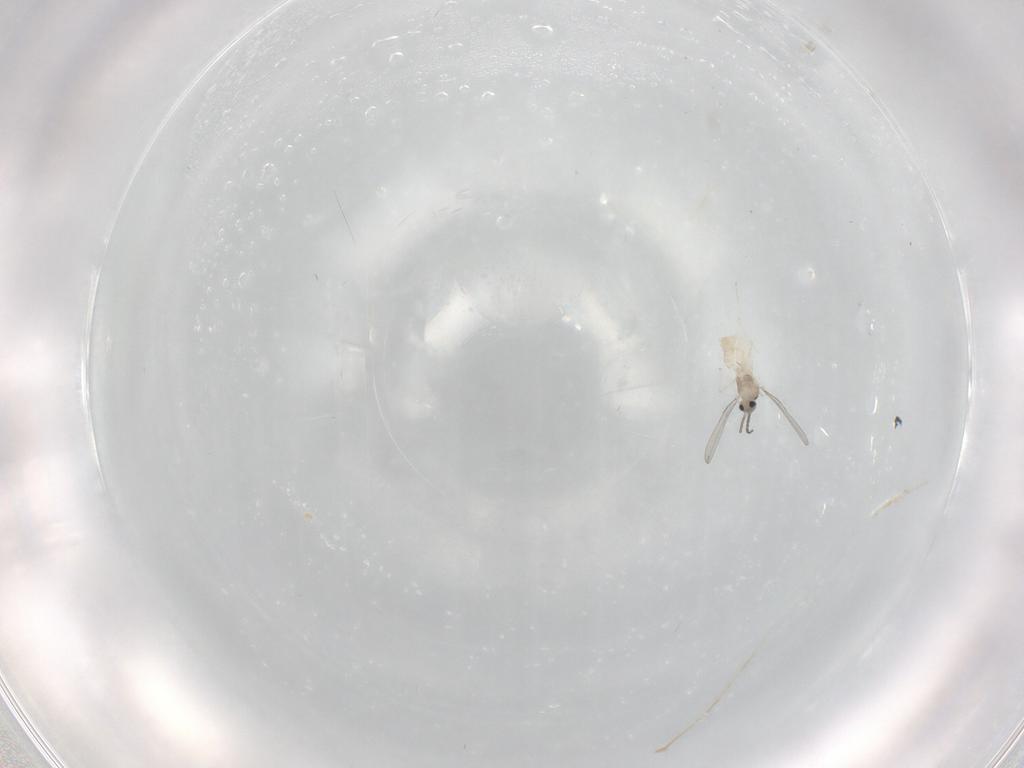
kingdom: Animalia
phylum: Arthropoda
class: Insecta
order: Diptera
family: Cecidomyiidae
